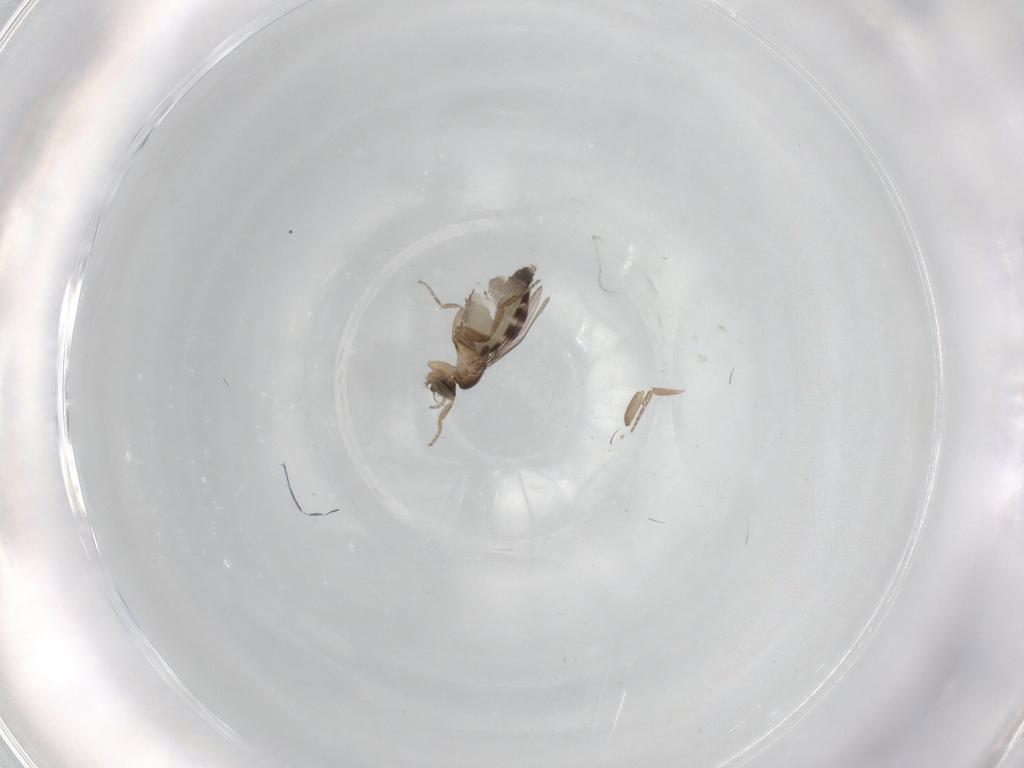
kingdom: Animalia
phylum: Arthropoda
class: Insecta
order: Diptera
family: Phoridae
